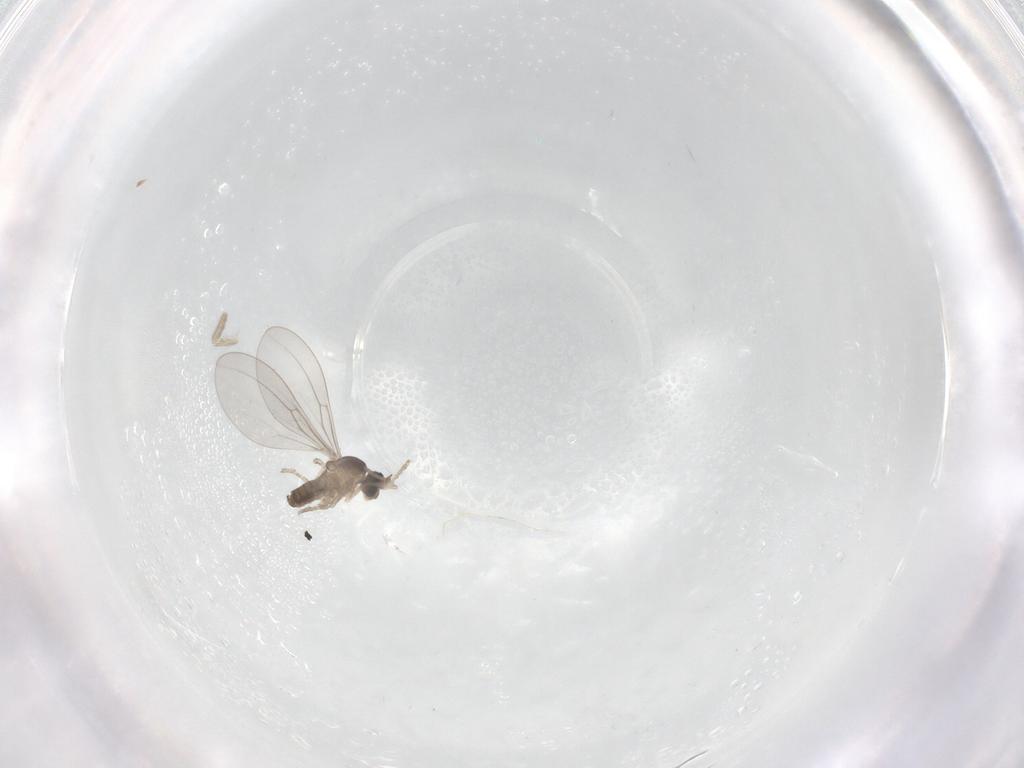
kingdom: Animalia
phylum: Arthropoda
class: Insecta
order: Diptera
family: Cecidomyiidae
